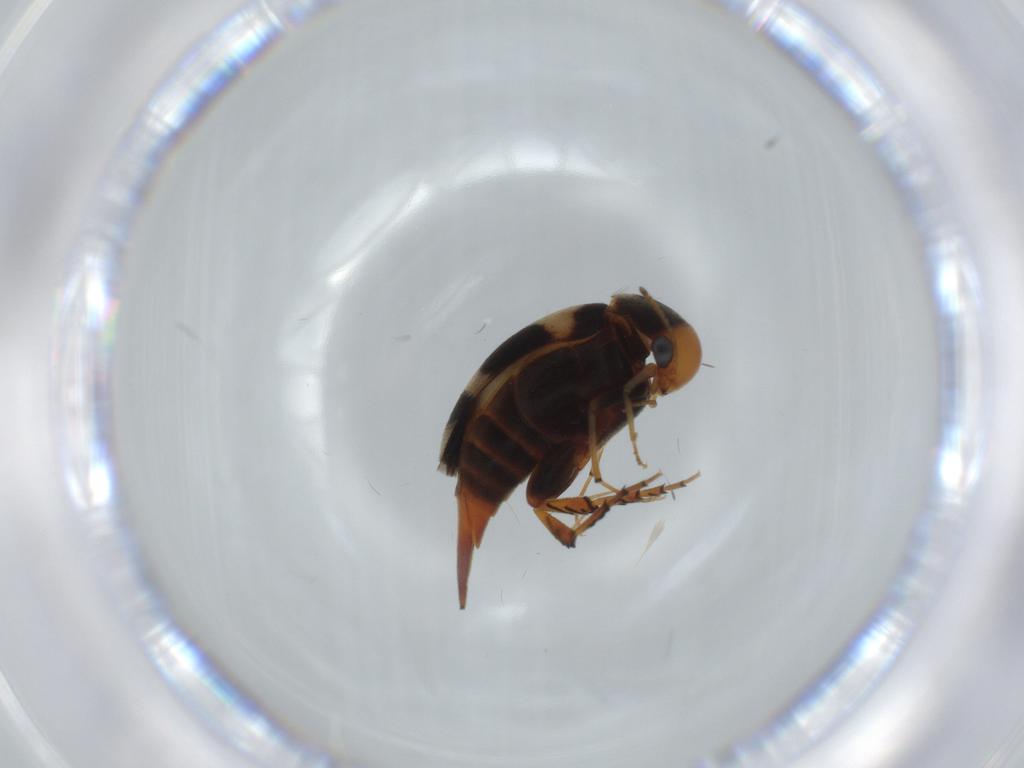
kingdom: Animalia
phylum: Arthropoda
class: Insecta
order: Coleoptera
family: Mordellidae
